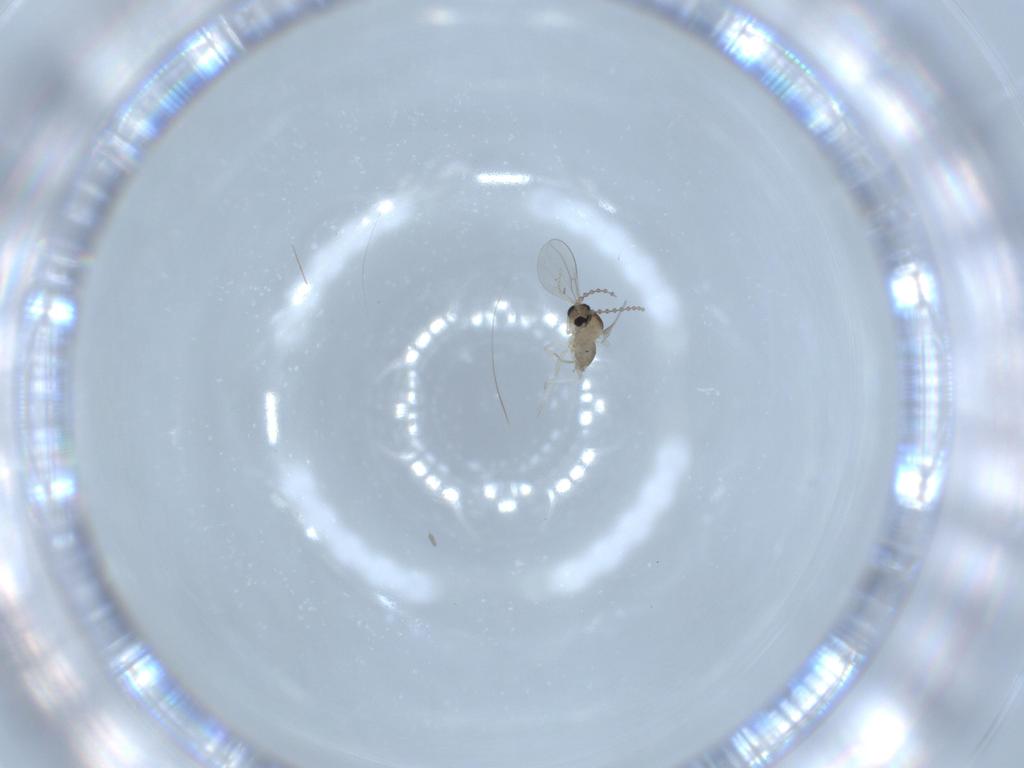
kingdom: Animalia
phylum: Arthropoda
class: Insecta
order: Diptera
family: Cecidomyiidae
